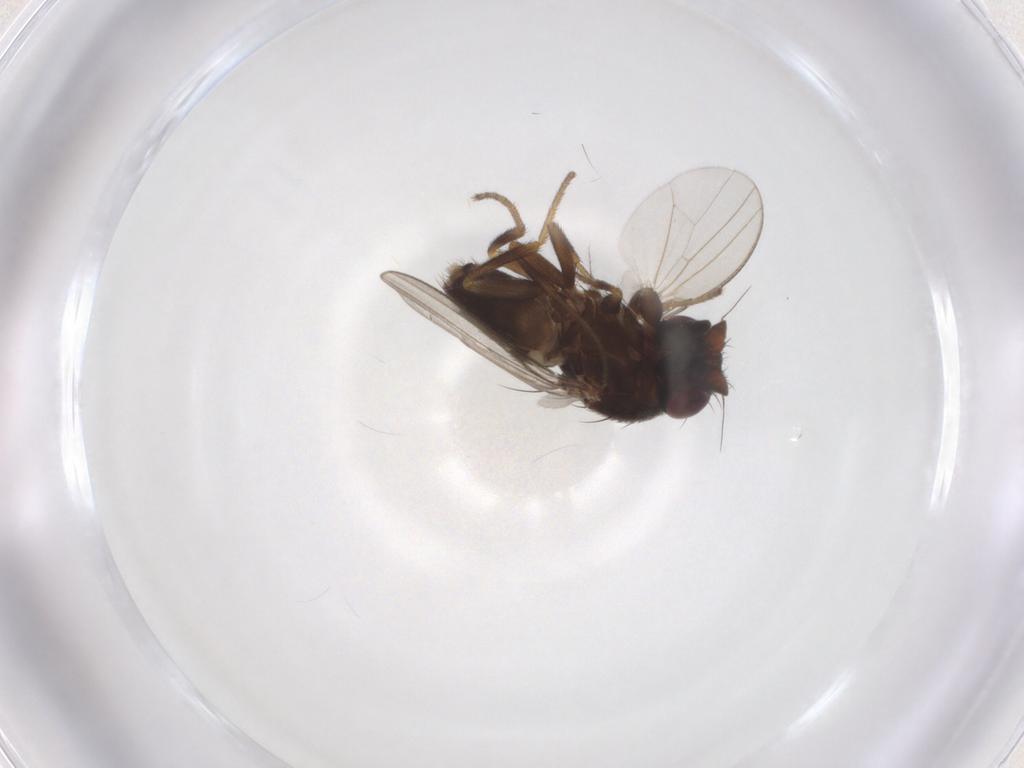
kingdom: Animalia
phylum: Arthropoda
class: Insecta
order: Diptera
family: Milichiidae
